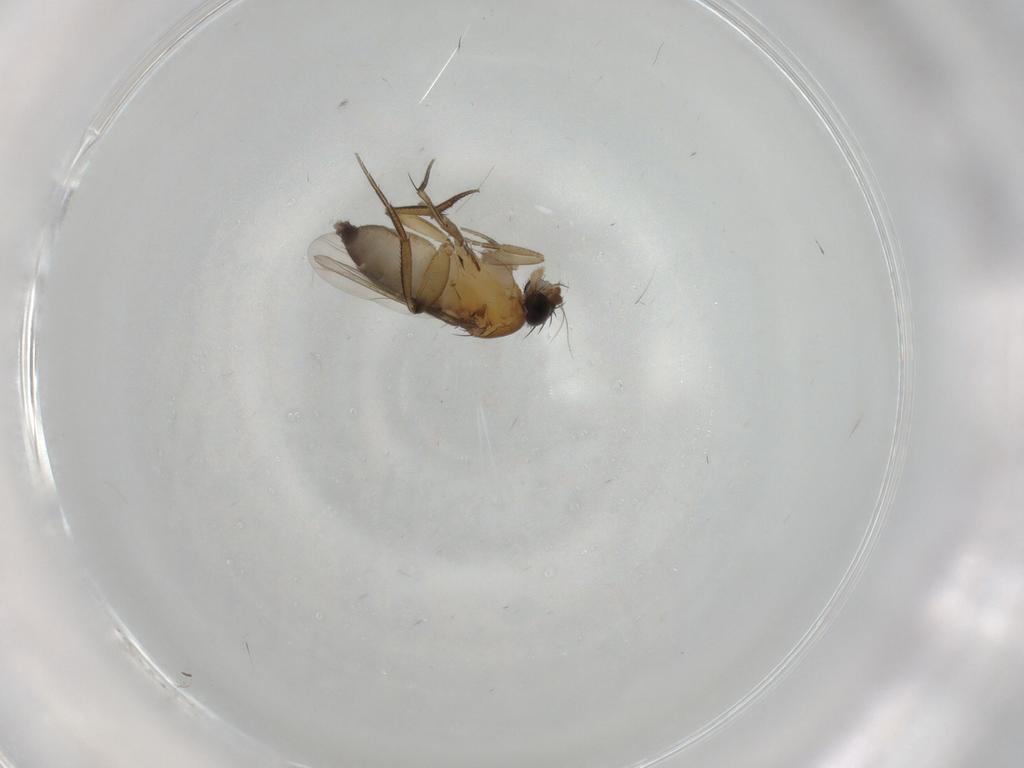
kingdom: Animalia
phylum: Arthropoda
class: Insecta
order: Diptera
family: Phoridae
